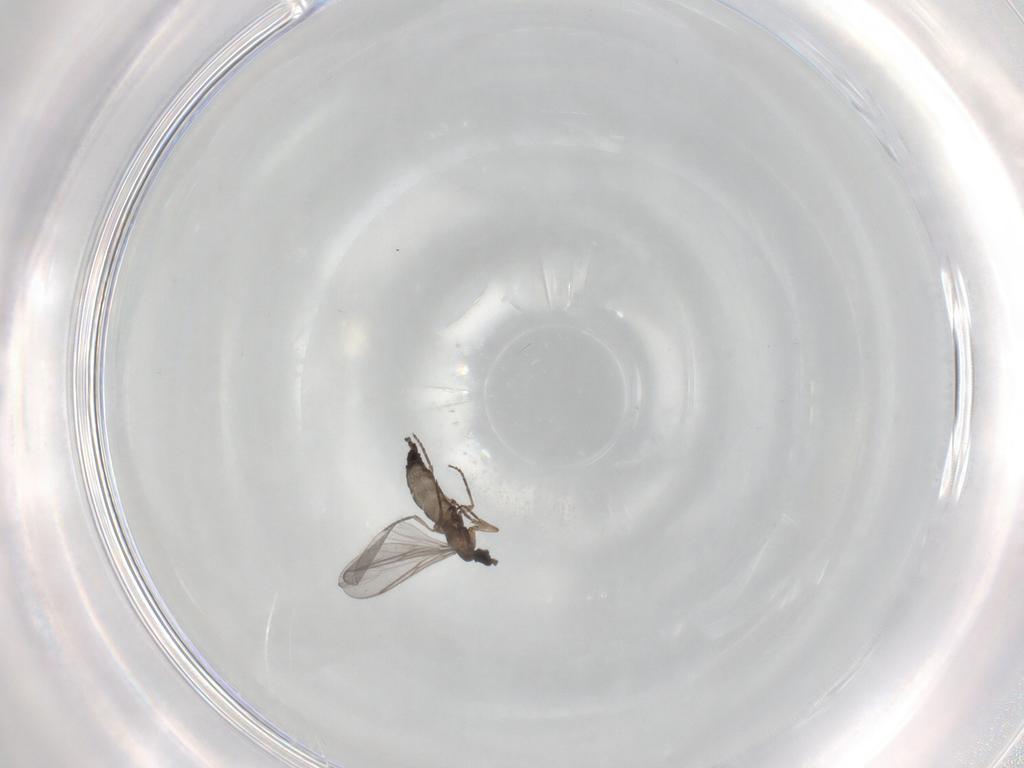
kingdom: Animalia
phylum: Arthropoda
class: Insecta
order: Diptera
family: Sciaridae
